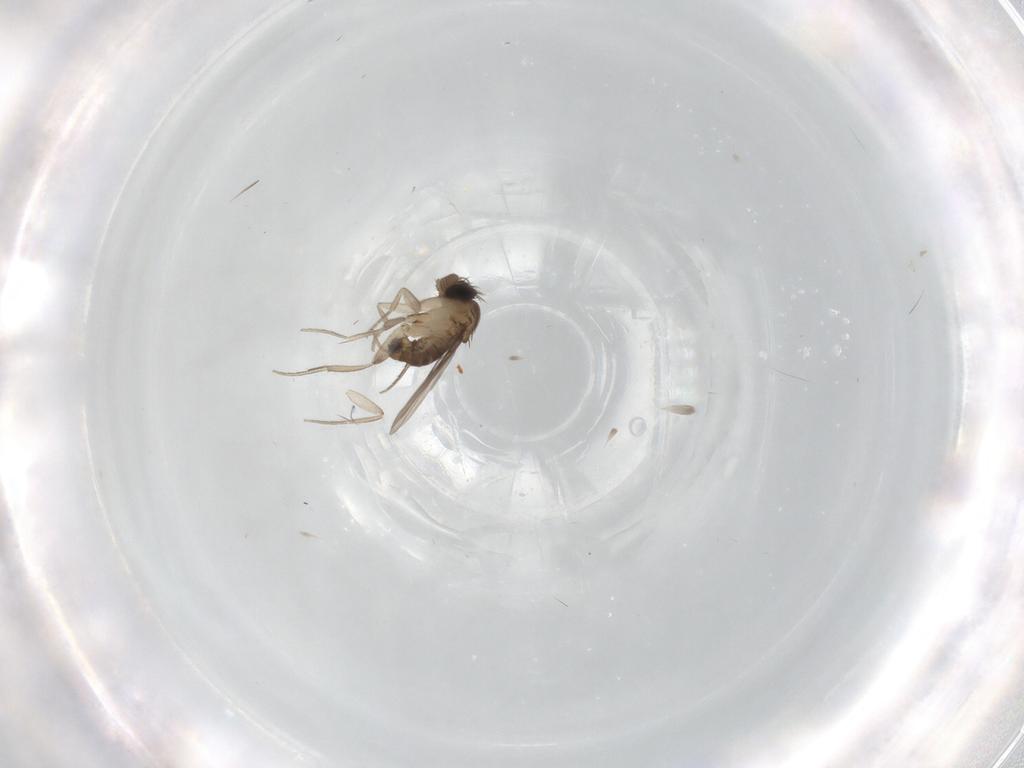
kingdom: Animalia
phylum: Arthropoda
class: Insecta
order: Diptera
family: Phoridae
